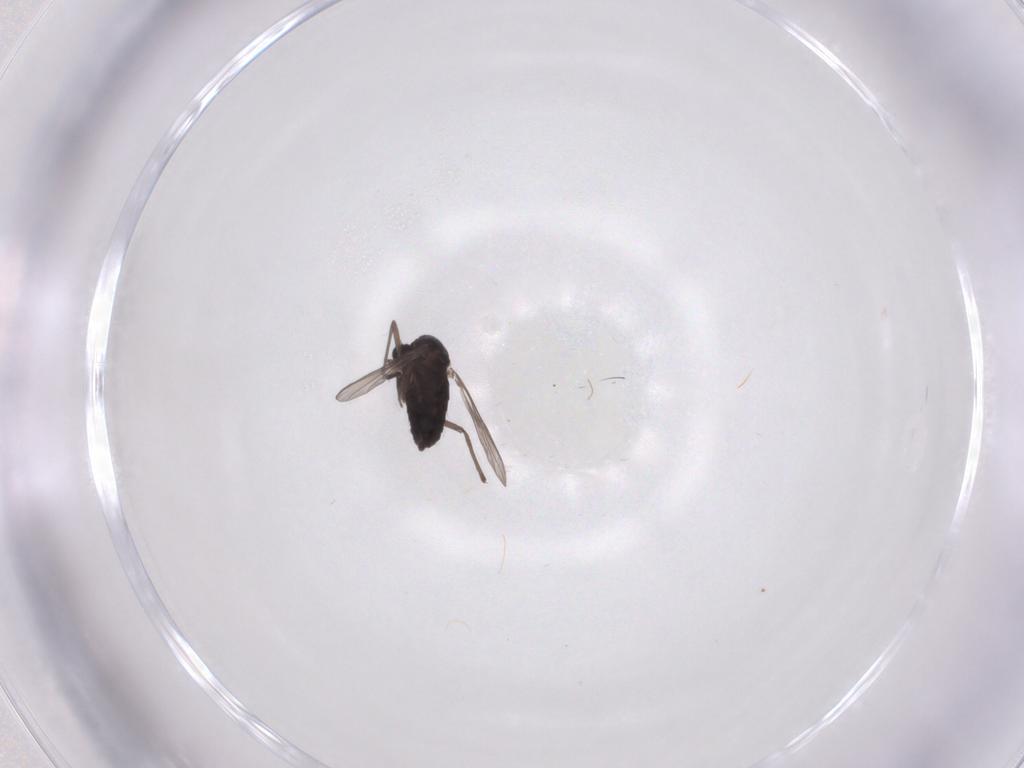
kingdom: Animalia
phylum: Arthropoda
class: Insecta
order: Diptera
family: Chironomidae
